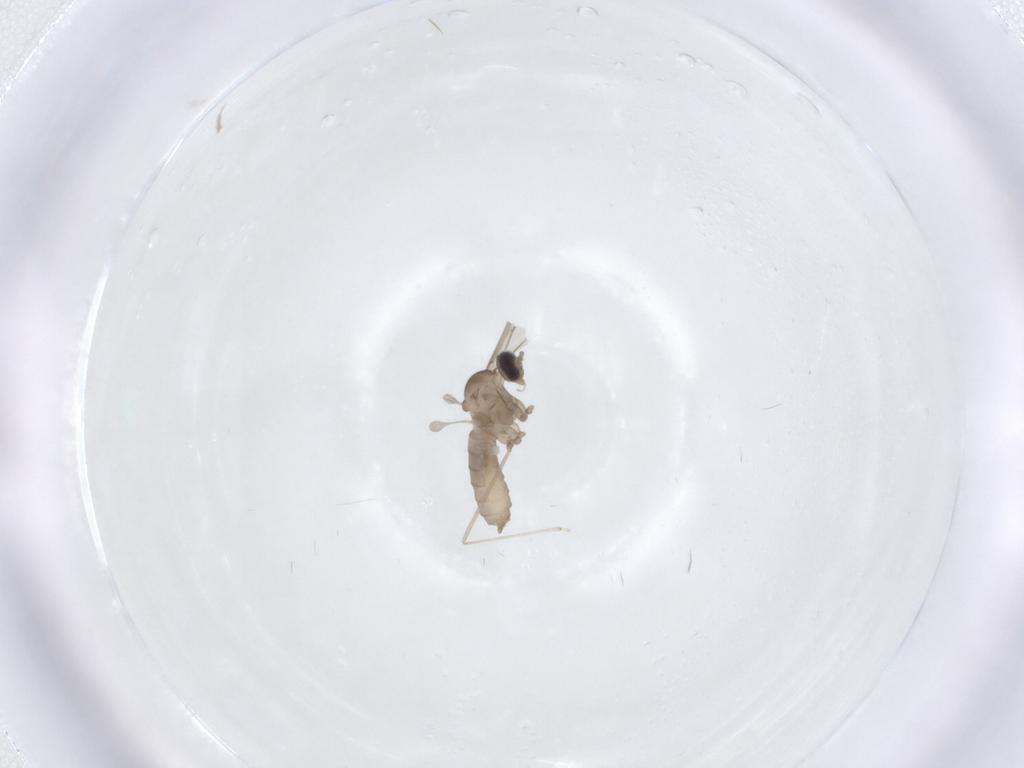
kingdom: Animalia
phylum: Arthropoda
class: Insecta
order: Diptera
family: Cecidomyiidae
